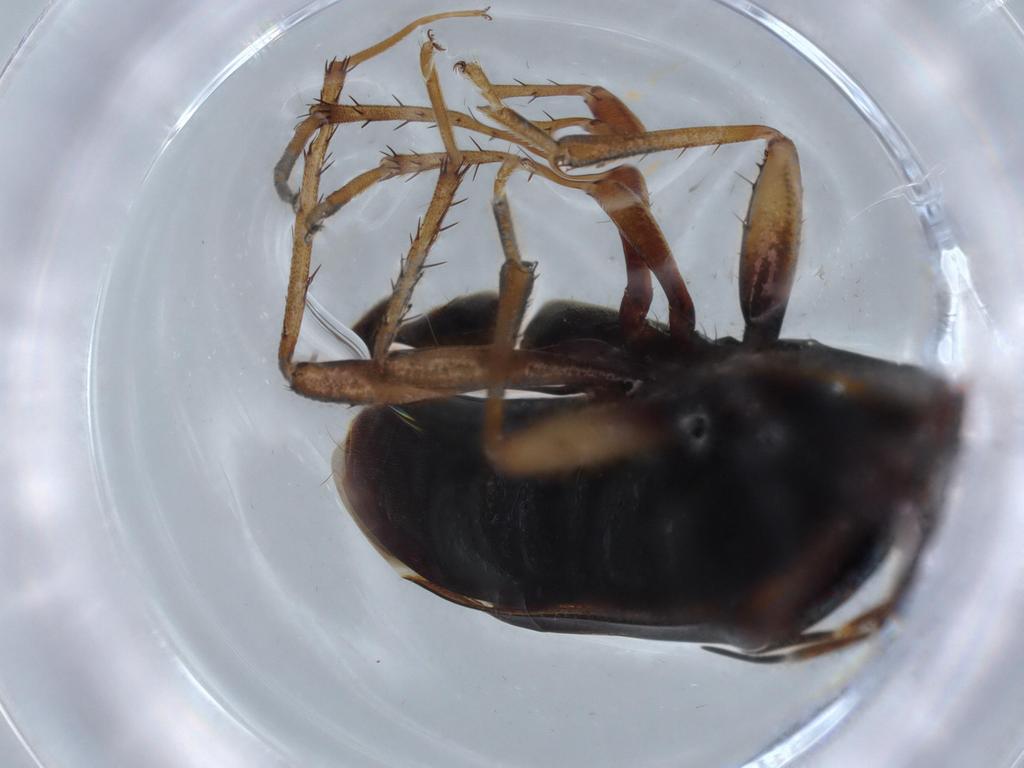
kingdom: Animalia
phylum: Arthropoda
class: Insecta
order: Hemiptera
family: Rhyparochromidae
